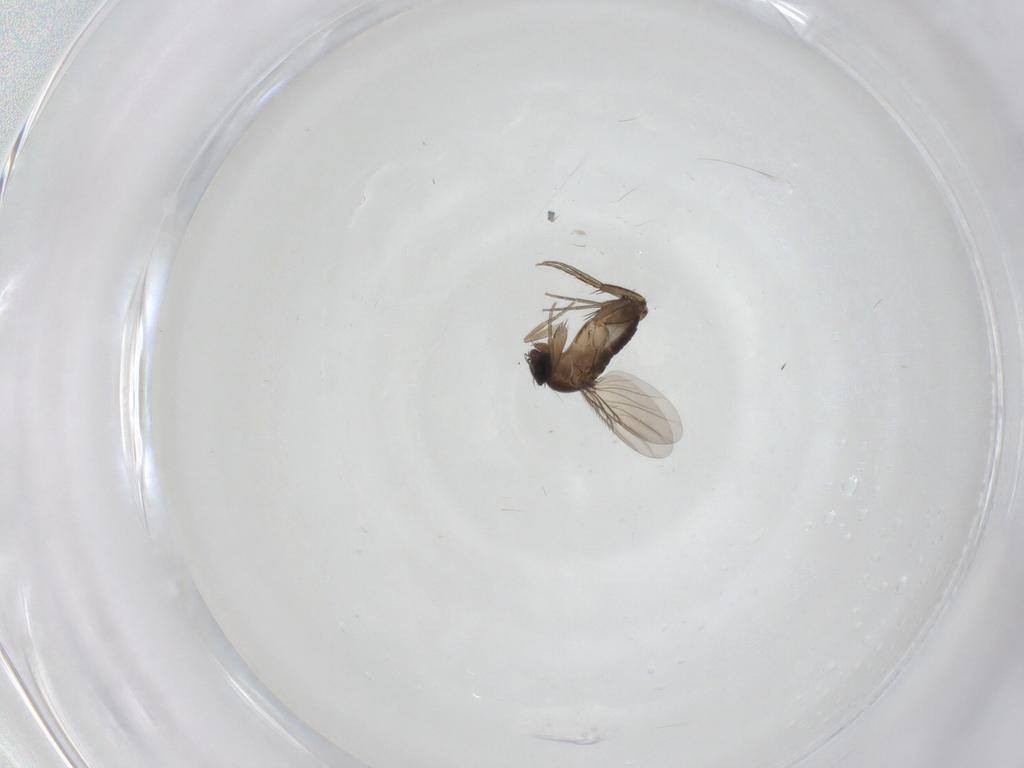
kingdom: Animalia
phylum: Arthropoda
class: Insecta
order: Diptera
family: Phoridae
